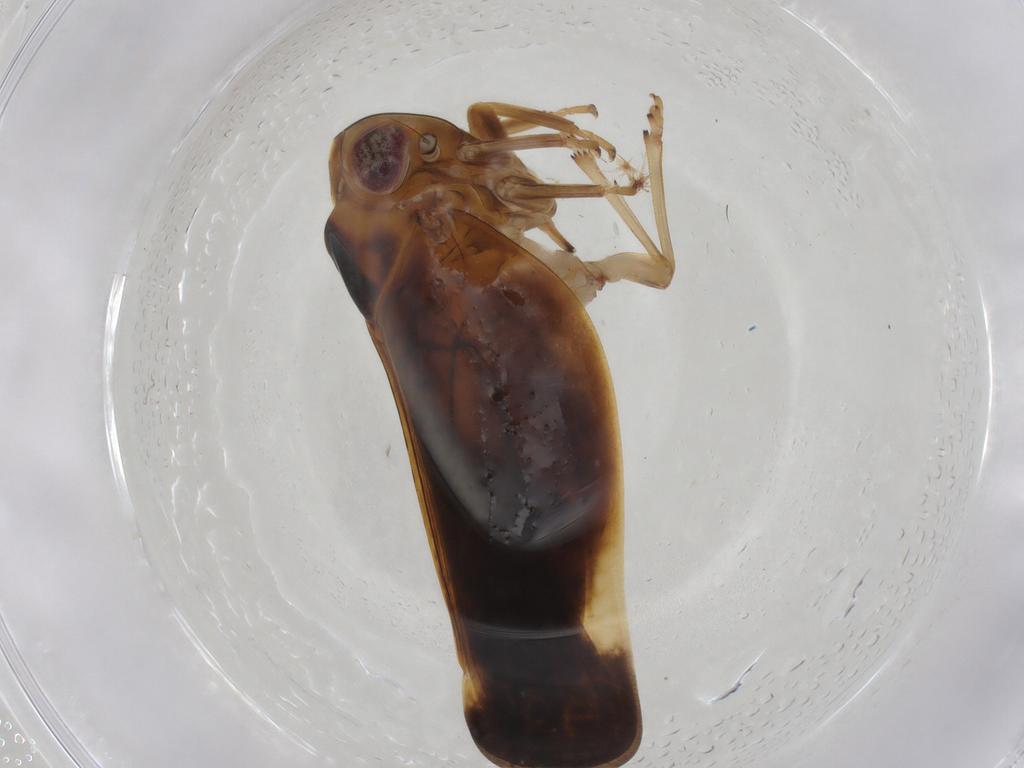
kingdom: Animalia
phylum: Arthropoda
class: Insecta
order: Hemiptera
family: Nogodinidae
